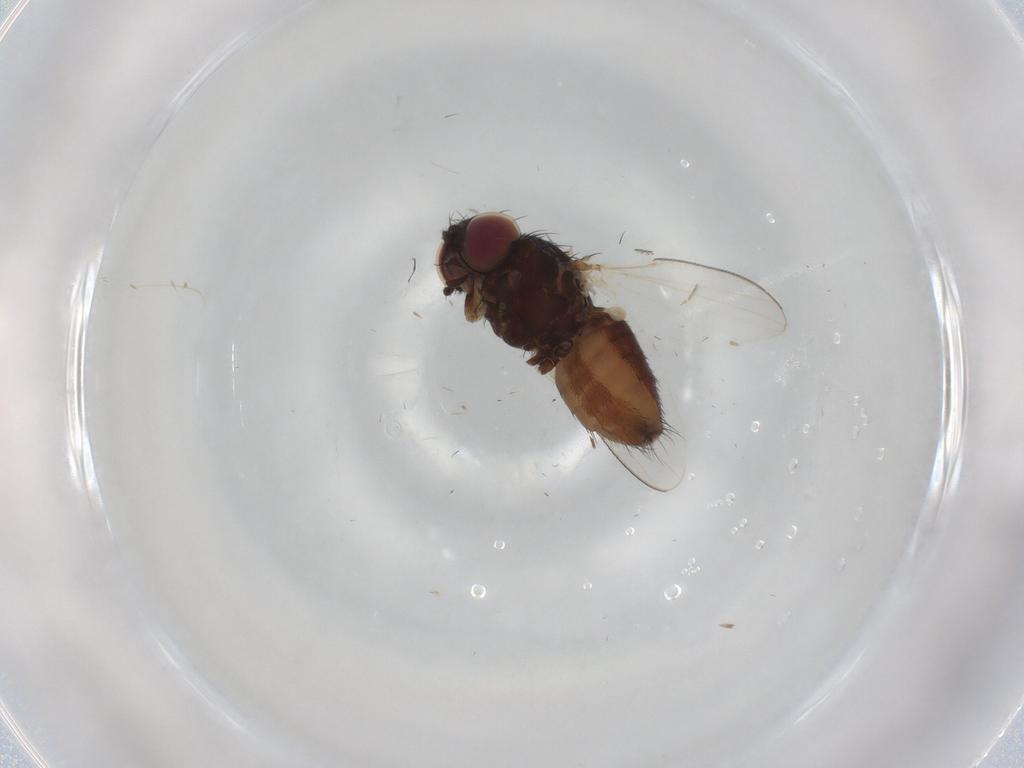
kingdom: Animalia
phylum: Arthropoda
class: Insecta
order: Diptera
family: Milichiidae
